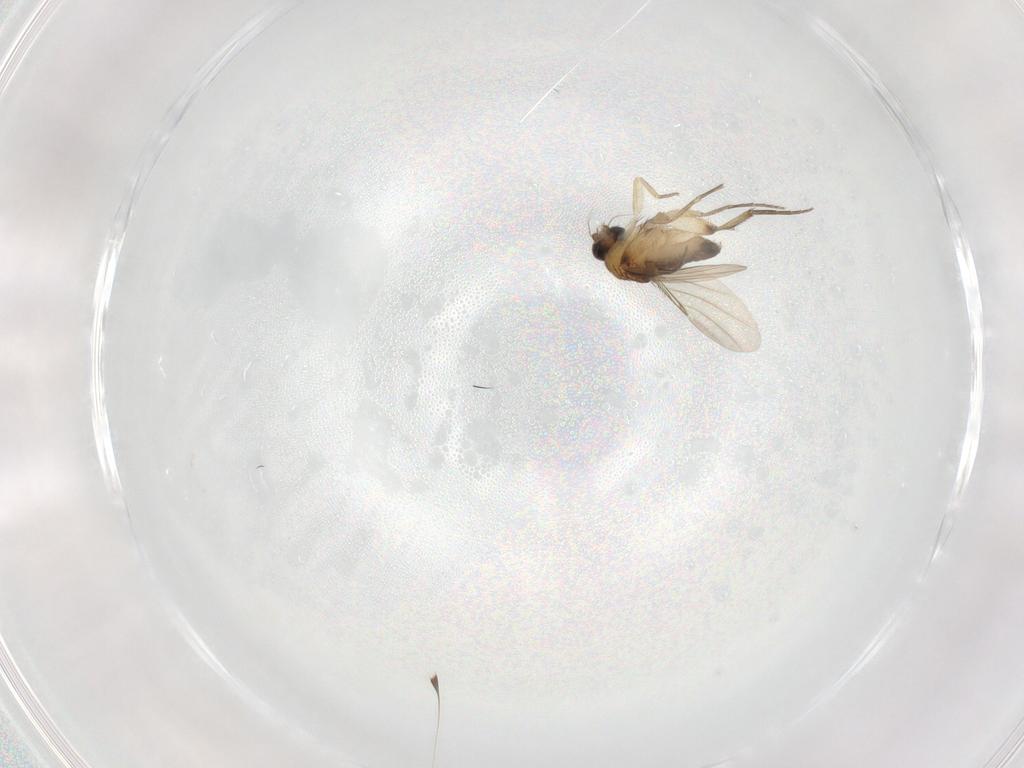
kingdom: Animalia
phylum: Arthropoda
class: Insecta
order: Diptera
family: Phoridae
